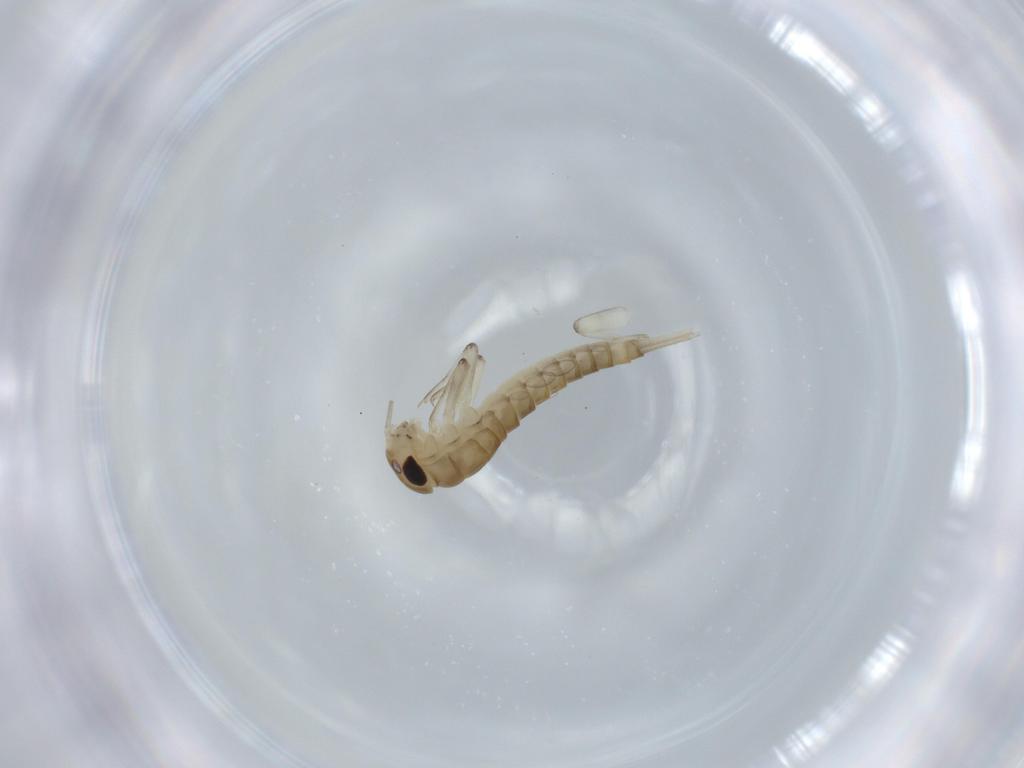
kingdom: Animalia
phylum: Arthropoda
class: Insecta
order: Ephemeroptera
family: Baetidae
